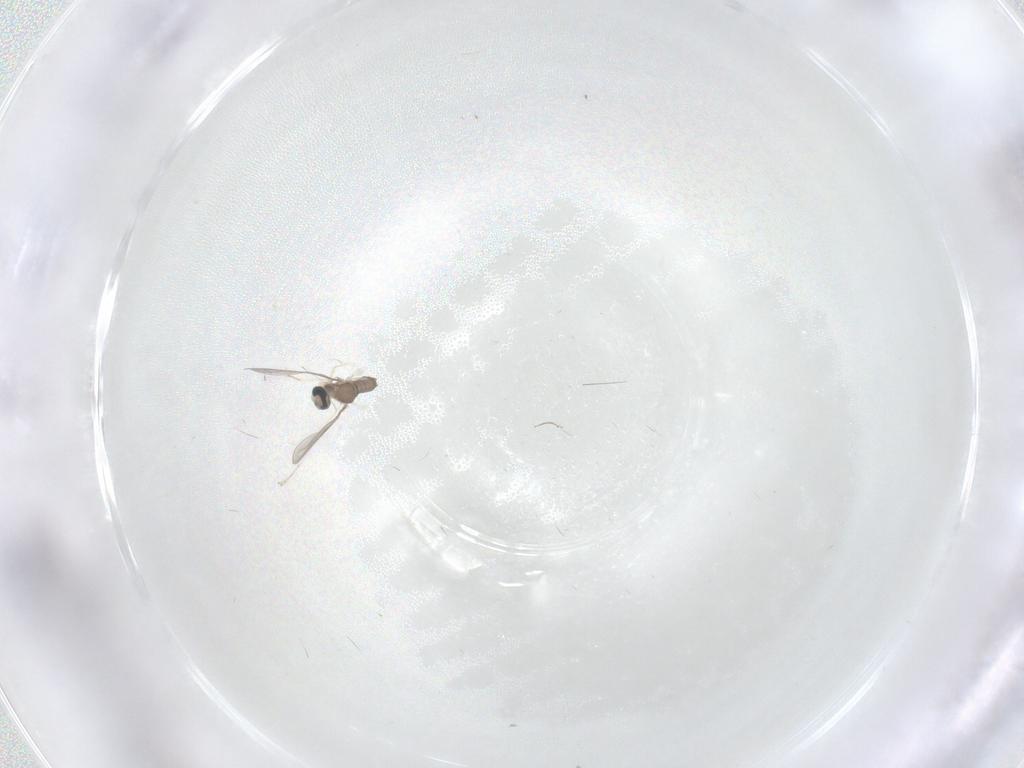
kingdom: Animalia
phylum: Arthropoda
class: Insecta
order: Diptera
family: Cecidomyiidae
